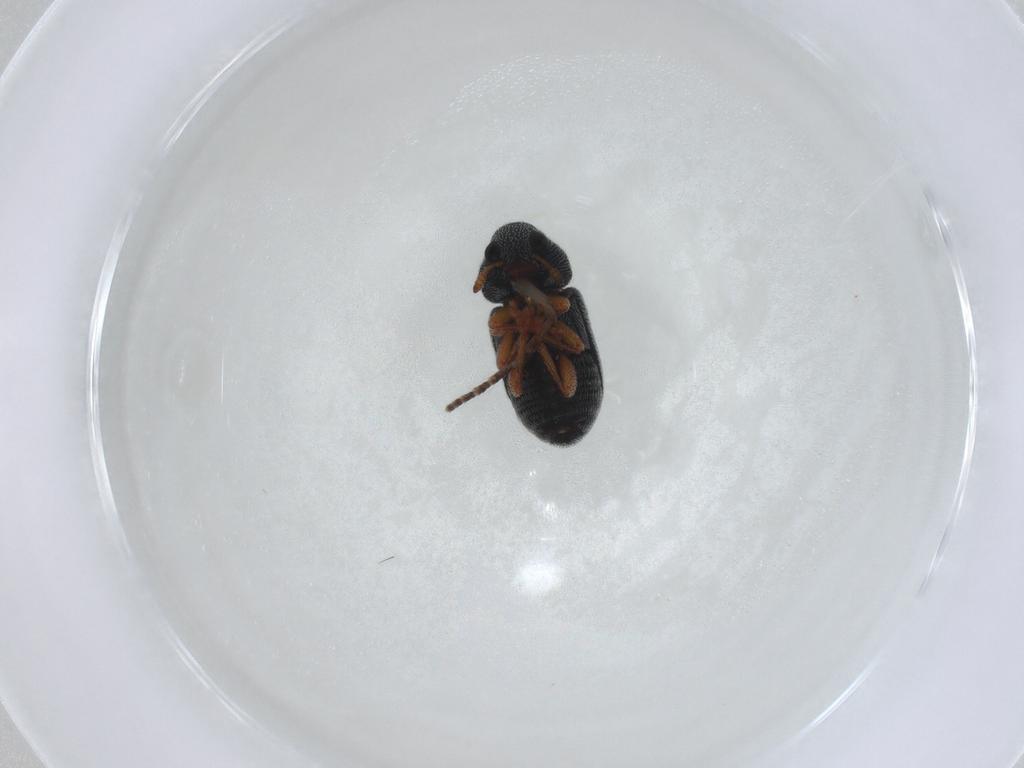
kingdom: Animalia
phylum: Arthropoda
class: Insecta
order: Coleoptera
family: Anthribidae
